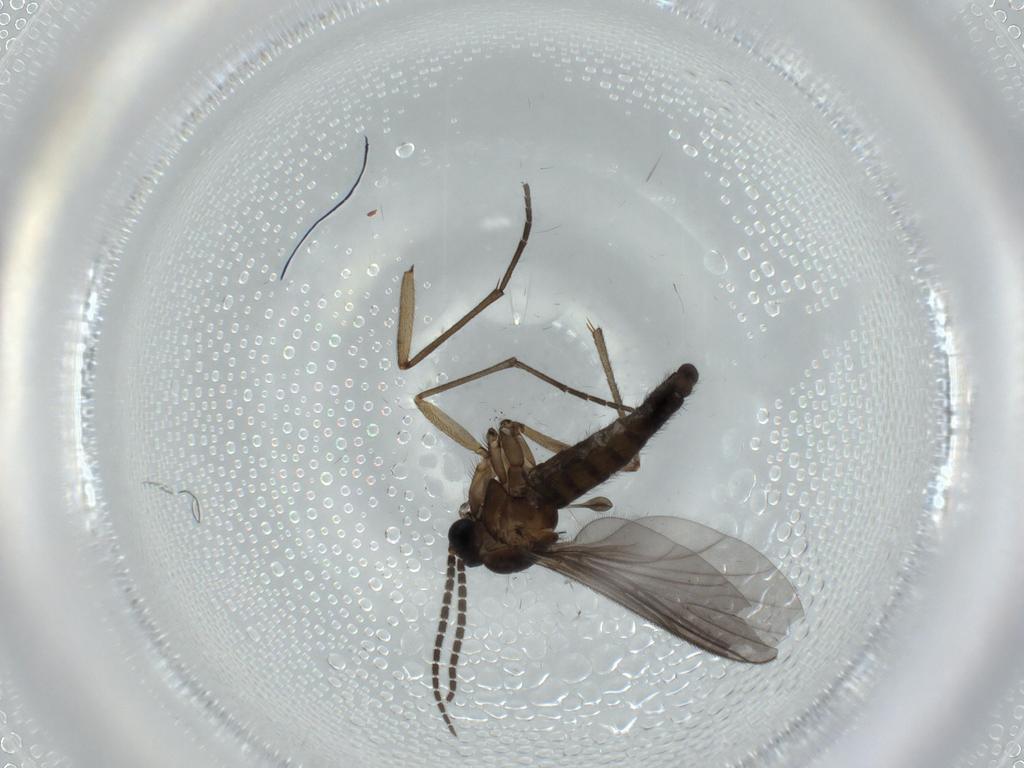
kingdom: Animalia
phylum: Arthropoda
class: Insecta
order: Diptera
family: Sciaridae
